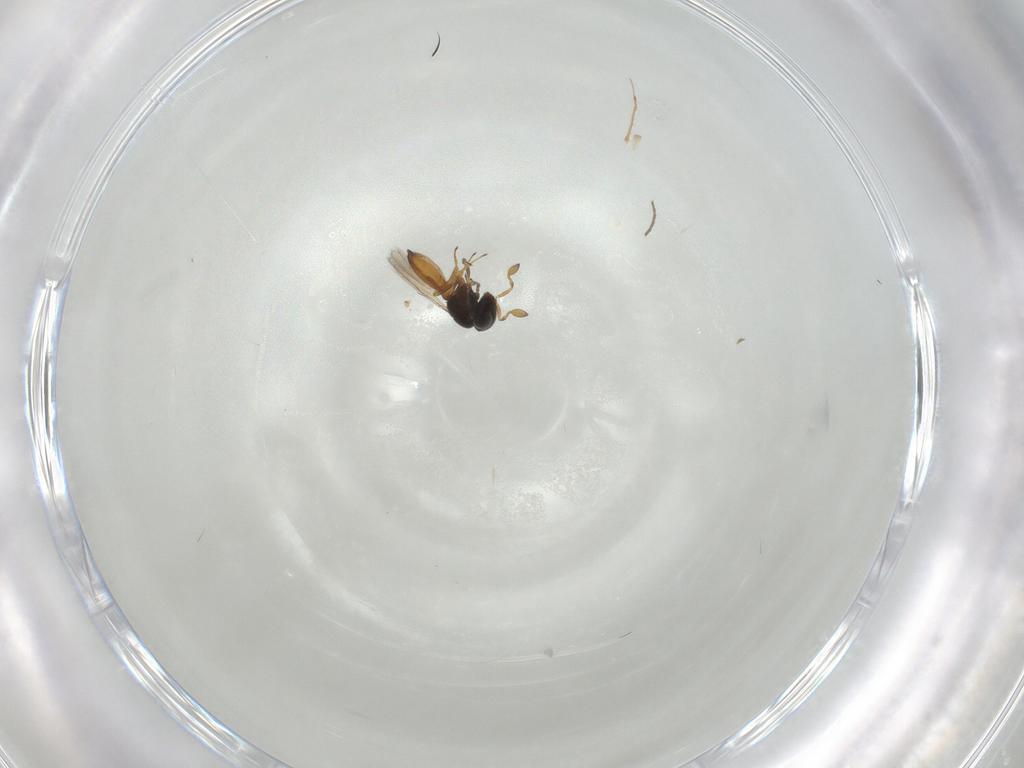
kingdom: Animalia
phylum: Arthropoda
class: Insecta
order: Hymenoptera
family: Scelionidae
